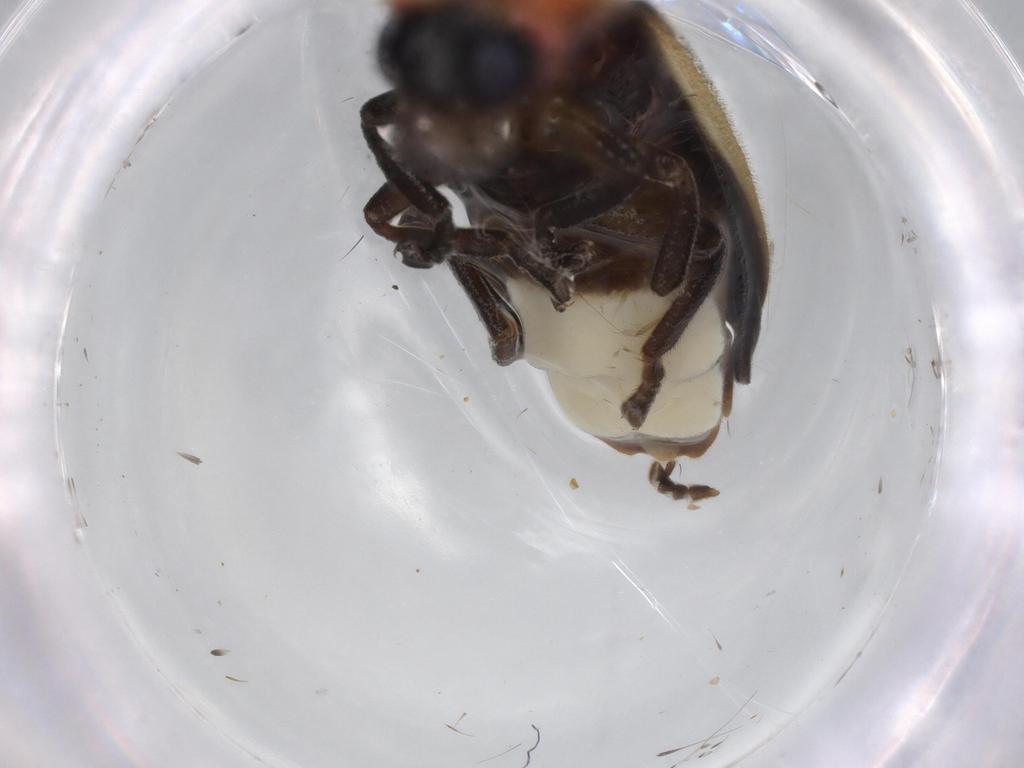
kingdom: Animalia
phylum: Arthropoda
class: Insecta
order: Coleoptera
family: Lampyridae
